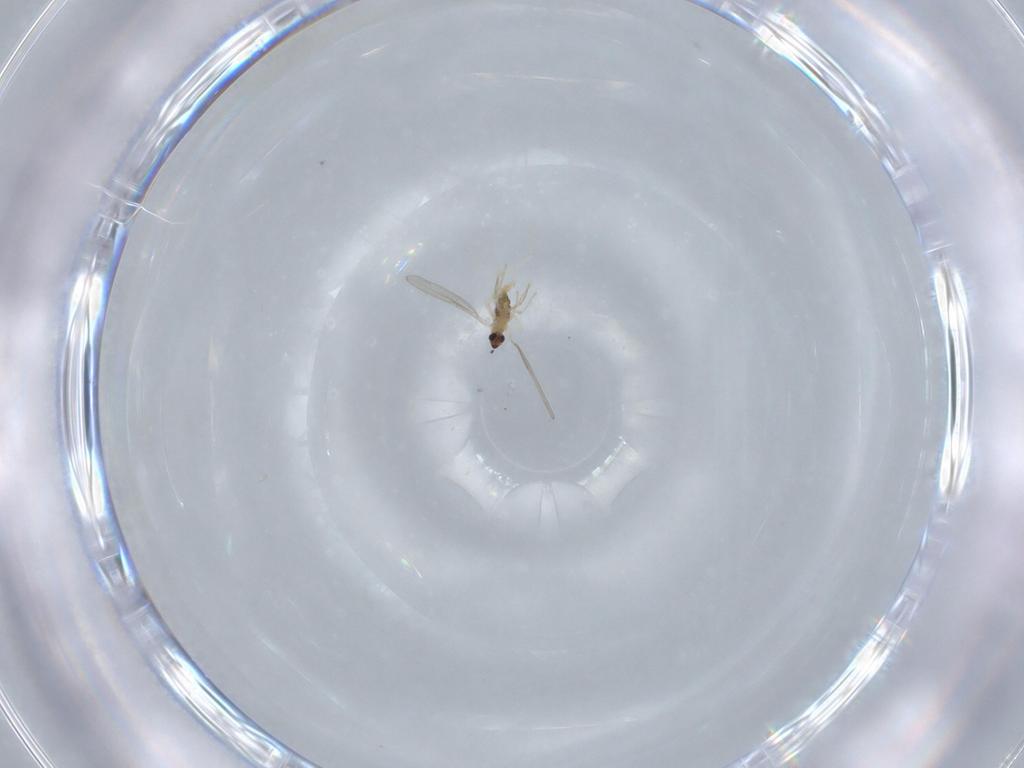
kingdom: Animalia
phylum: Arthropoda
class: Insecta
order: Diptera
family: Cecidomyiidae
